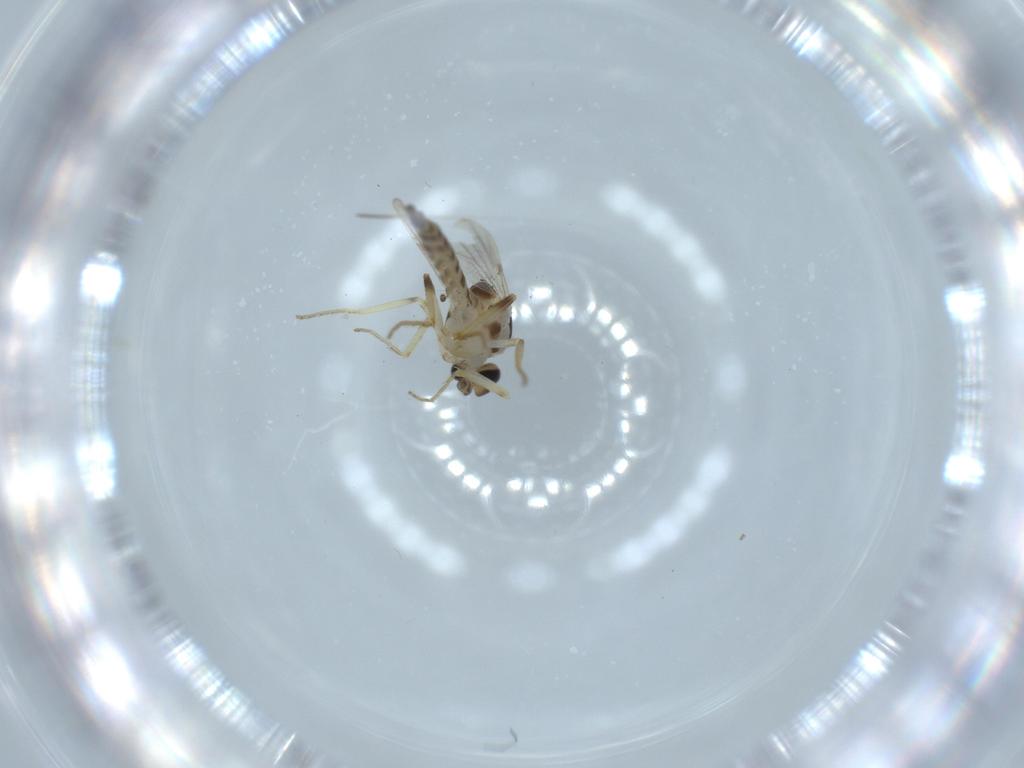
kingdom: Animalia
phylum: Arthropoda
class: Insecta
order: Diptera
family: Ceratopogonidae
